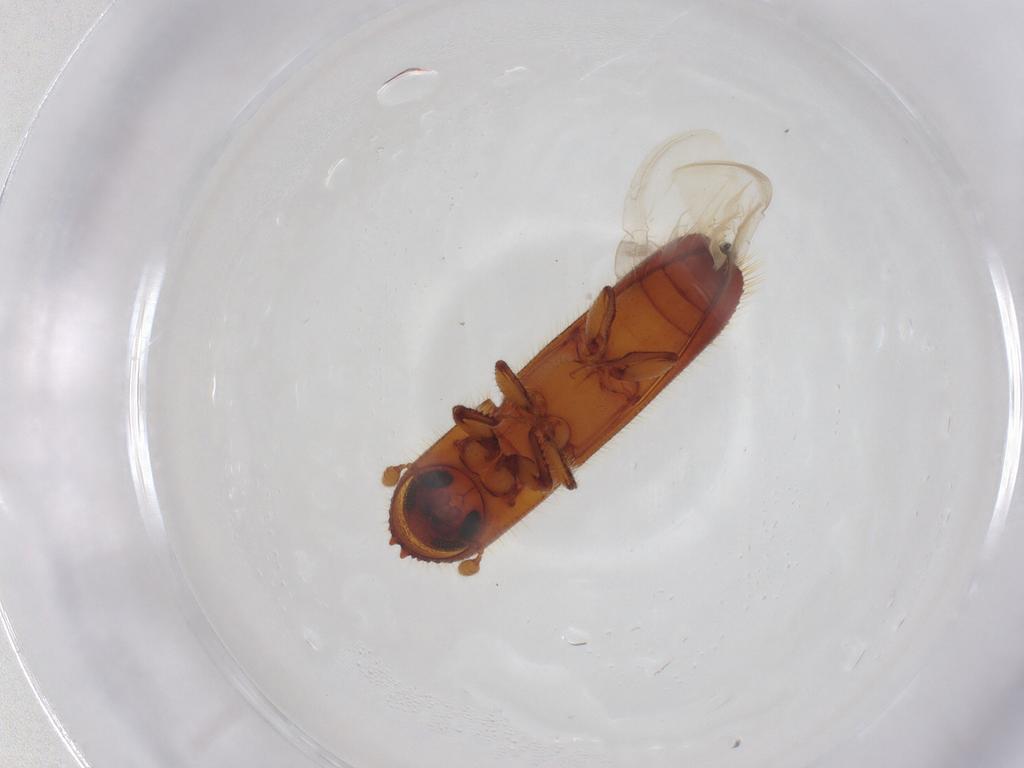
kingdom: Animalia
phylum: Arthropoda
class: Insecta
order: Coleoptera
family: Curculionidae
